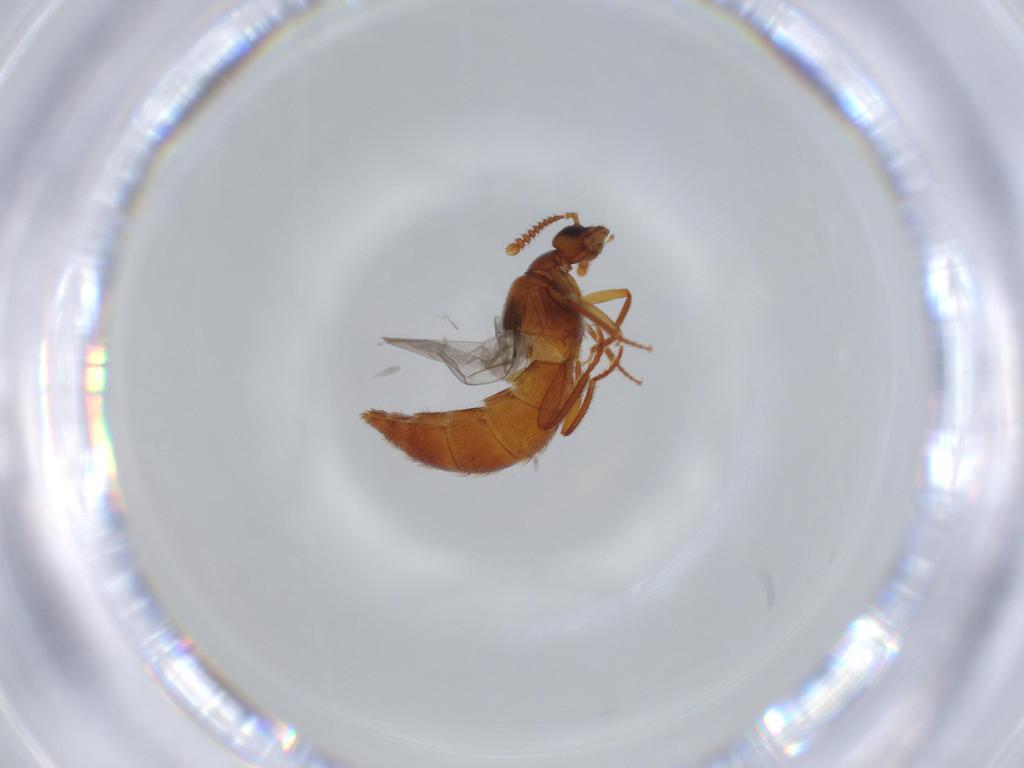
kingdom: Animalia
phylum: Arthropoda
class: Insecta
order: Coleoptera
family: Staphylinidae
